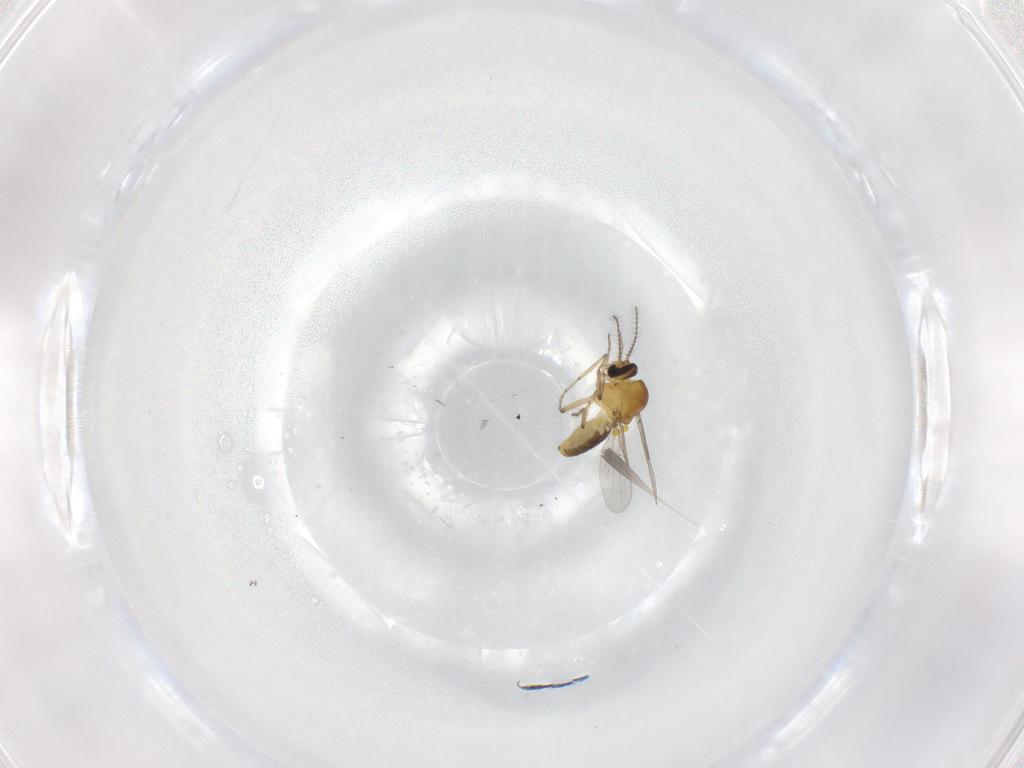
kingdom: Animalia
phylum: Arthropoda
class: Insecta
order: Diptera
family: Ceratopogonidae
